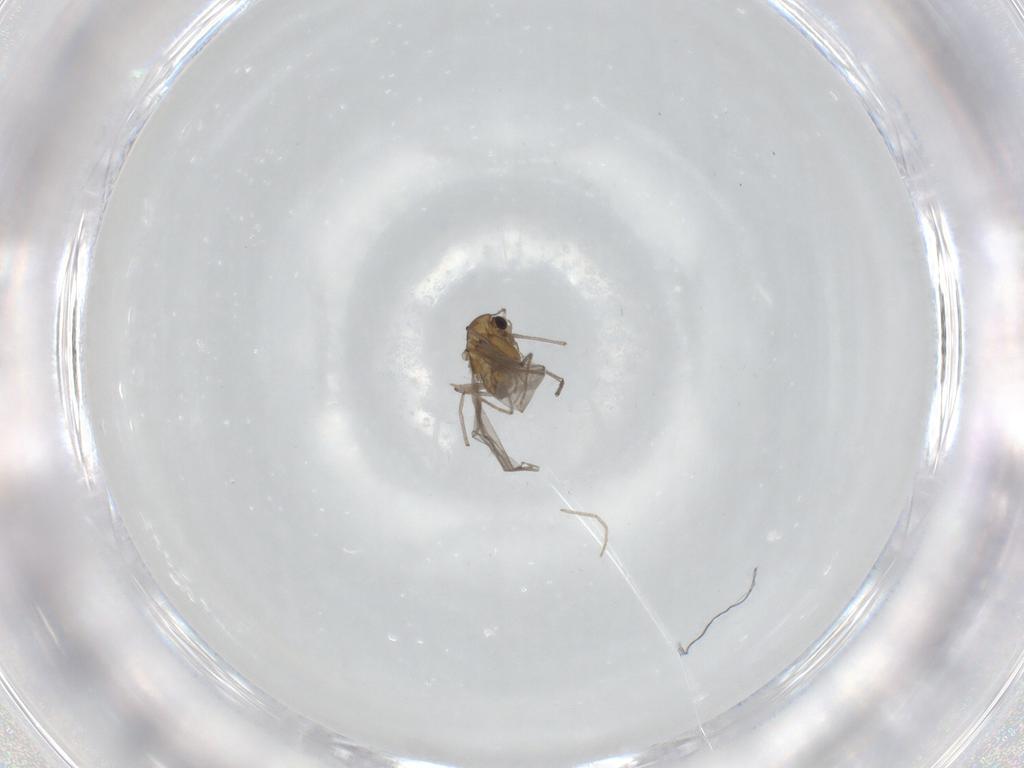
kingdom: Animalia
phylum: Arthropoda
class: Insecta
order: Diptera
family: Chironomidae
